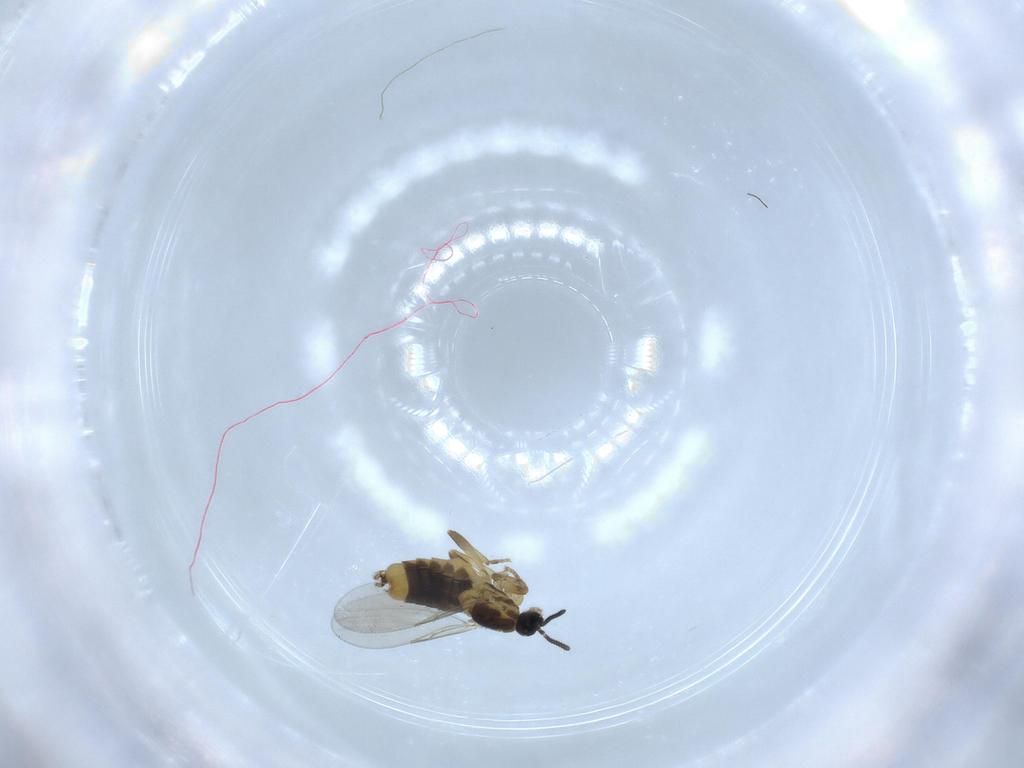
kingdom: Animalia
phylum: Arthropoda
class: Insecta
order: Diptera
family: Scatopsidae
